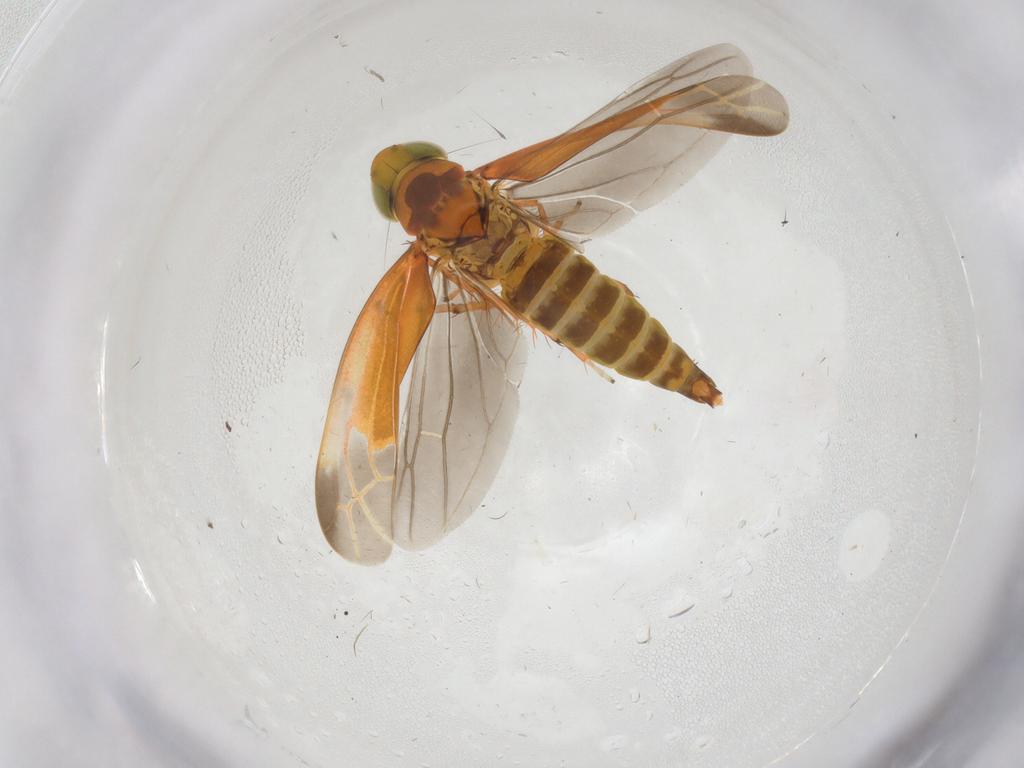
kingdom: Animalia
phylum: Arthropoda
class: Insecta
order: Hemiptera
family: Cicadellidae
